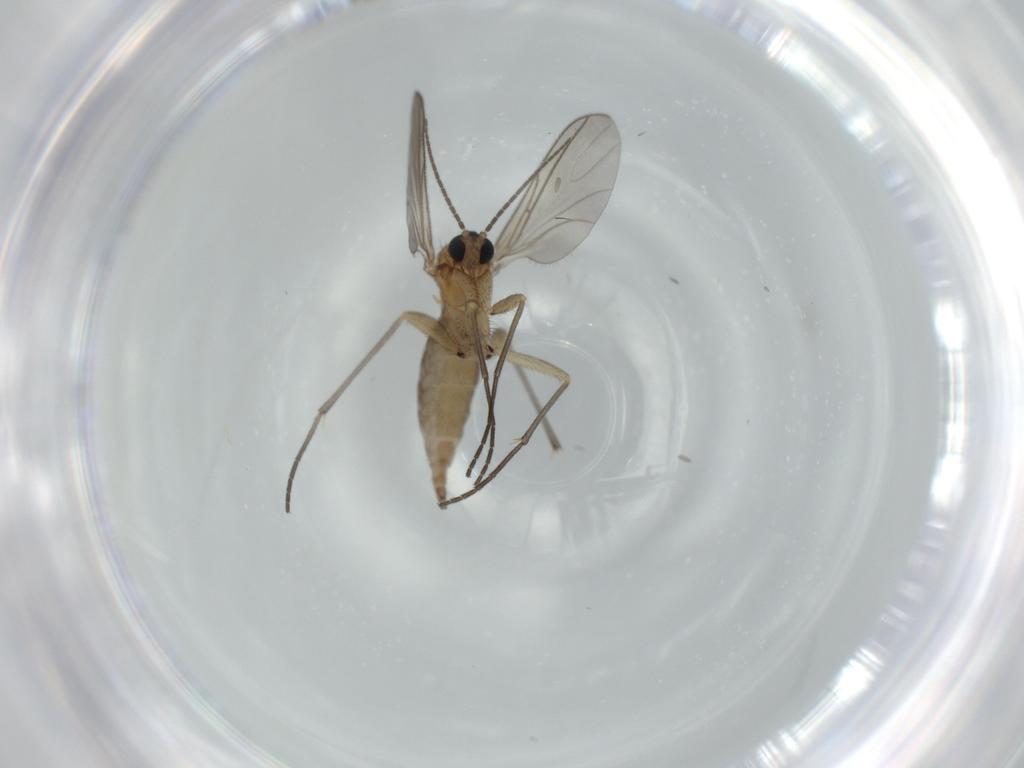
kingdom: Animalia
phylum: Arthropoda
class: Insecta
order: Diptera
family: Sciaridae
